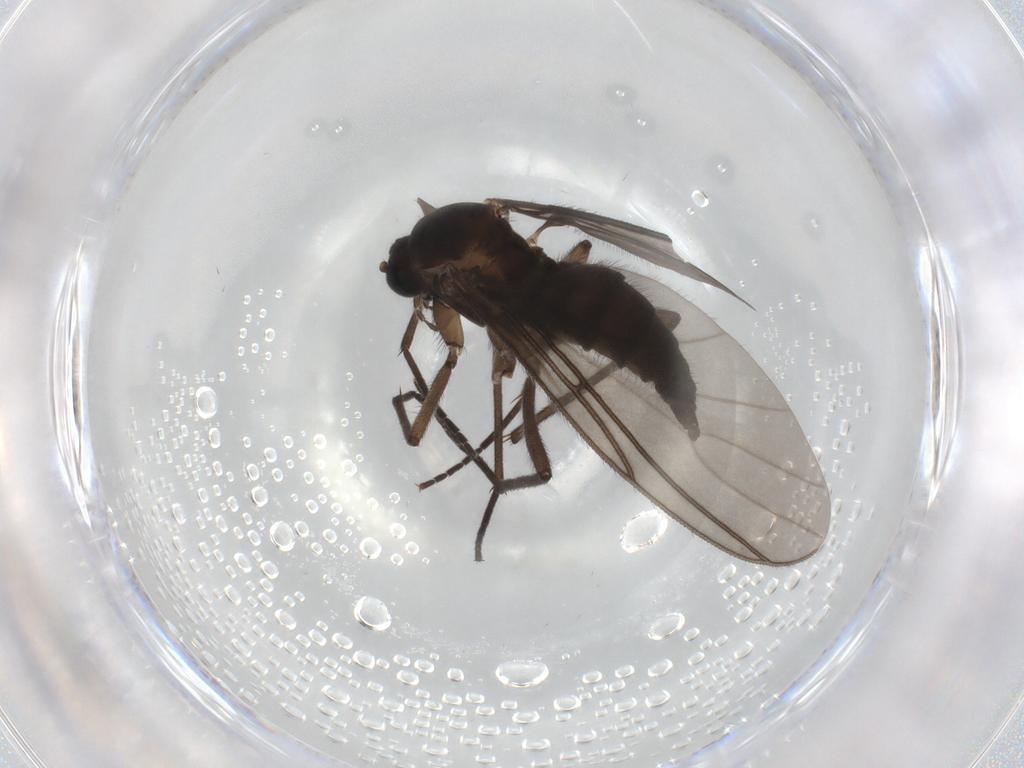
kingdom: Animalia
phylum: Arthropoda
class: Insecta
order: Diptera
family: Sciaridae
